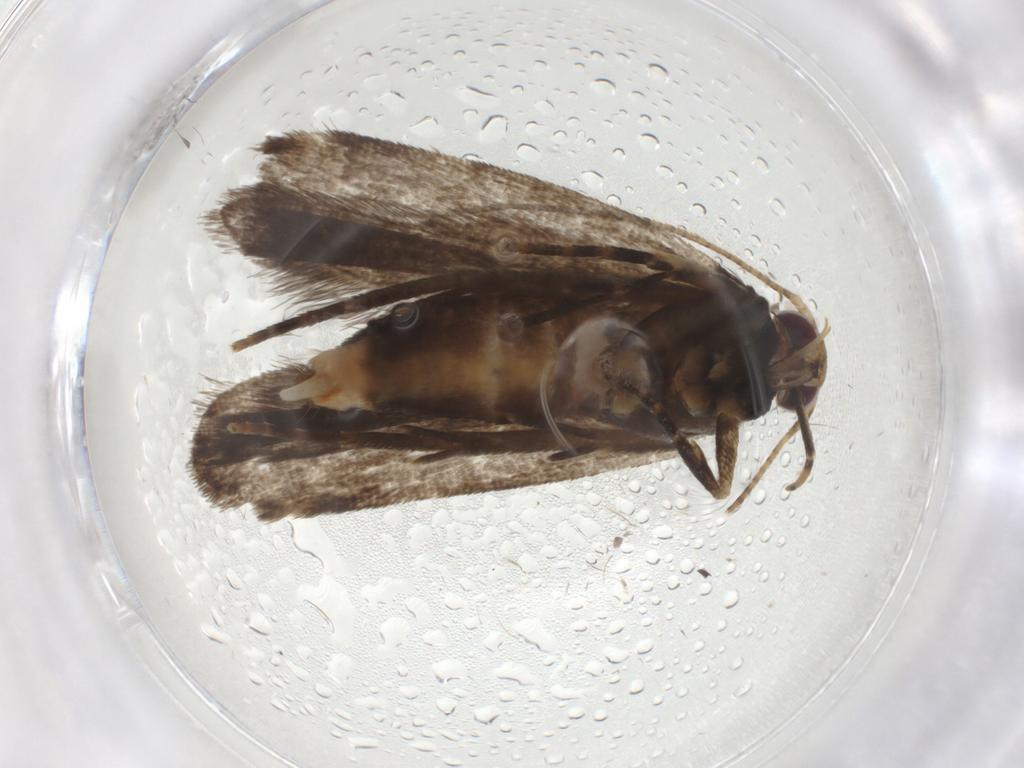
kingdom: Animalia
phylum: Arthropoda
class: Insecta
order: Lepidoptera
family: Gelechiidae
